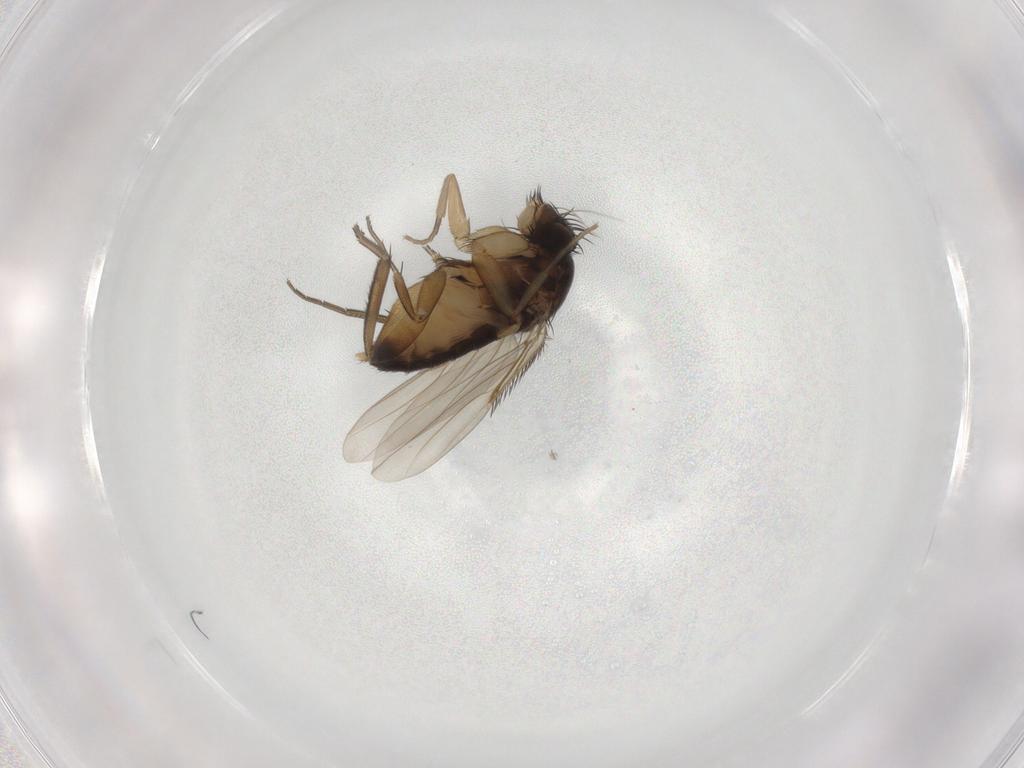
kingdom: Animalia
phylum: Arthropoda
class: Insecta
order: Diptera
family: Phoridae
